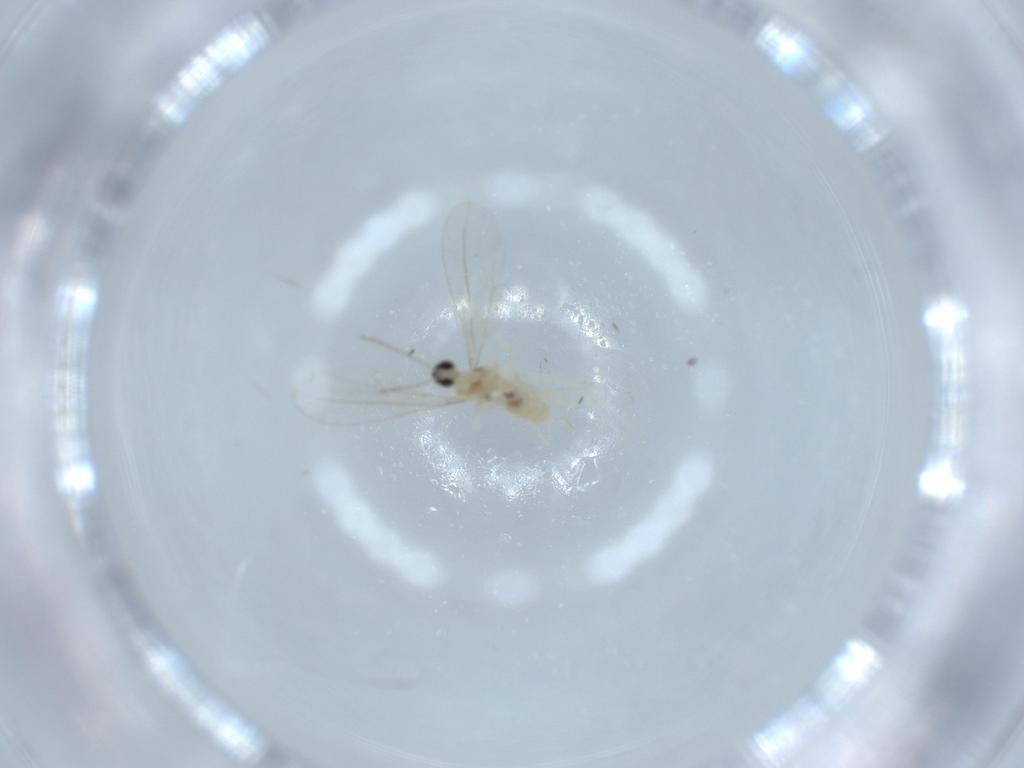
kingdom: Animalia
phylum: Arthropoda
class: Insecta
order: Diptera
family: Cecidomyiidae
